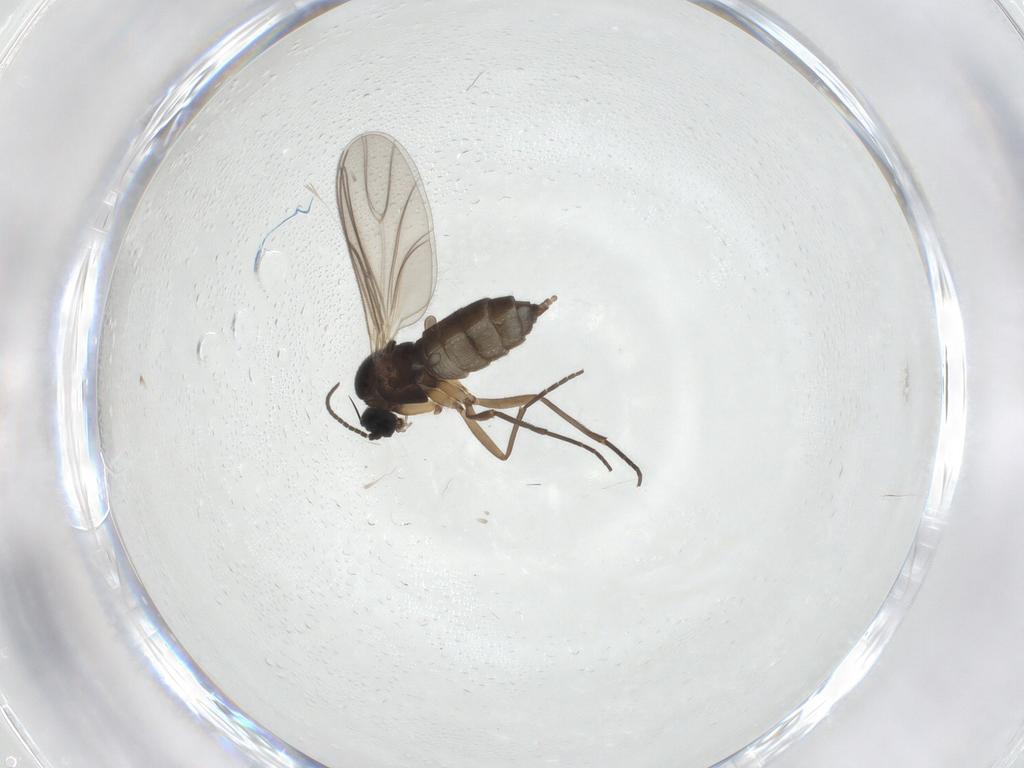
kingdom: Animalia
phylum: Arthropoda
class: Insecta
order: Diptera
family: Sciaridae
